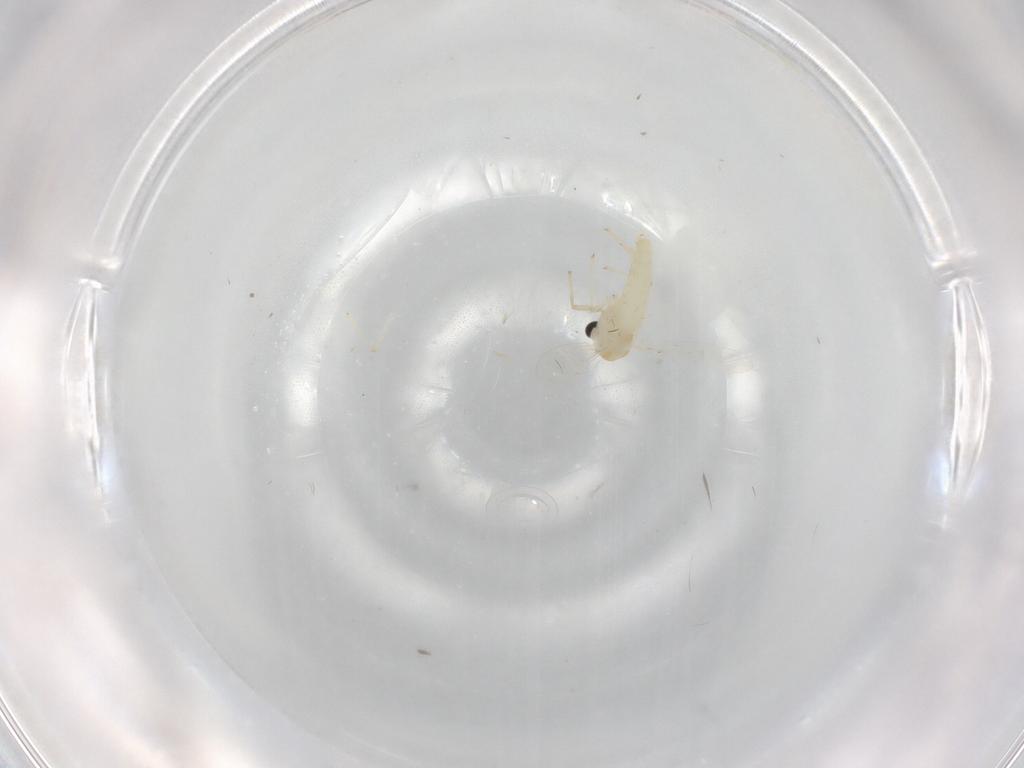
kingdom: Animalia
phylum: Arthropoda
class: Insecta
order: Diptera
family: Chironomidae
